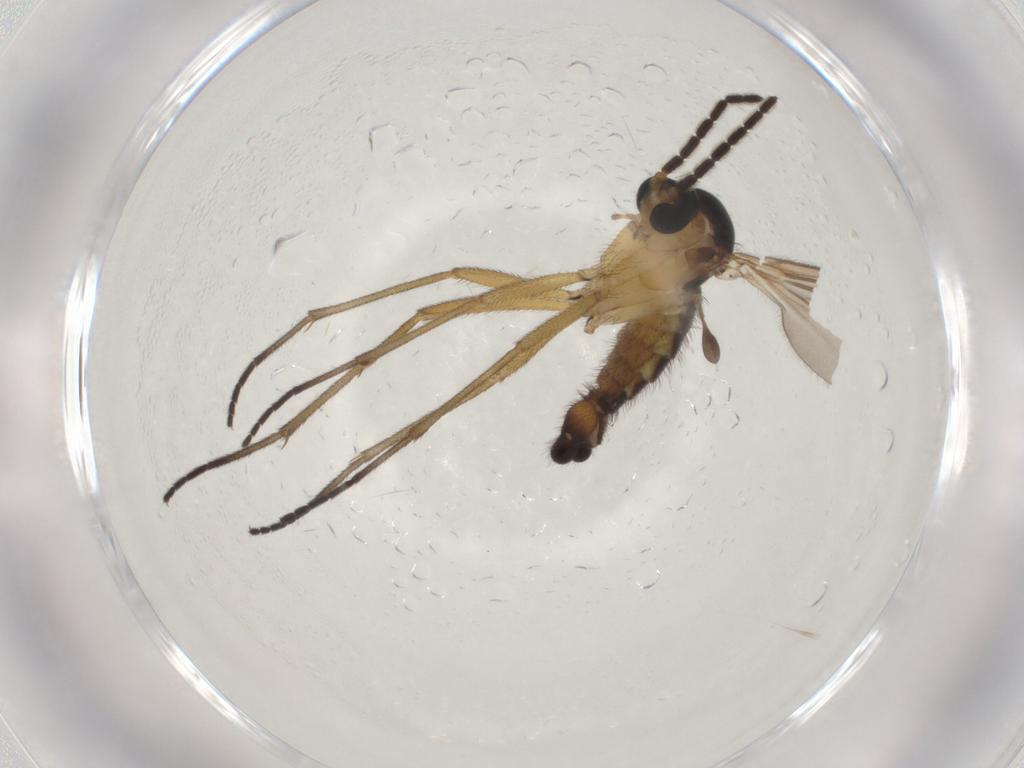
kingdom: Animalia
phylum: Arthropoda
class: Insecta
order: Diptera
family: Sciaridae
